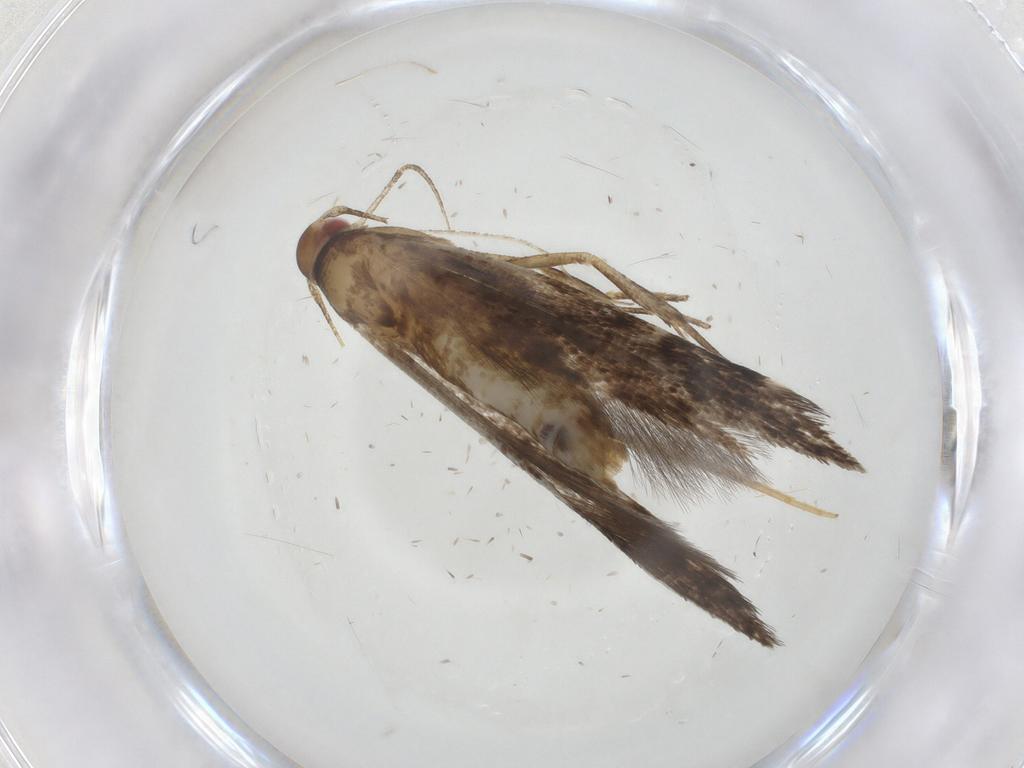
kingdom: Animalia
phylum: Arthropoda
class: Insecta
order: Lepidoptera
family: Cosmopterigidae
